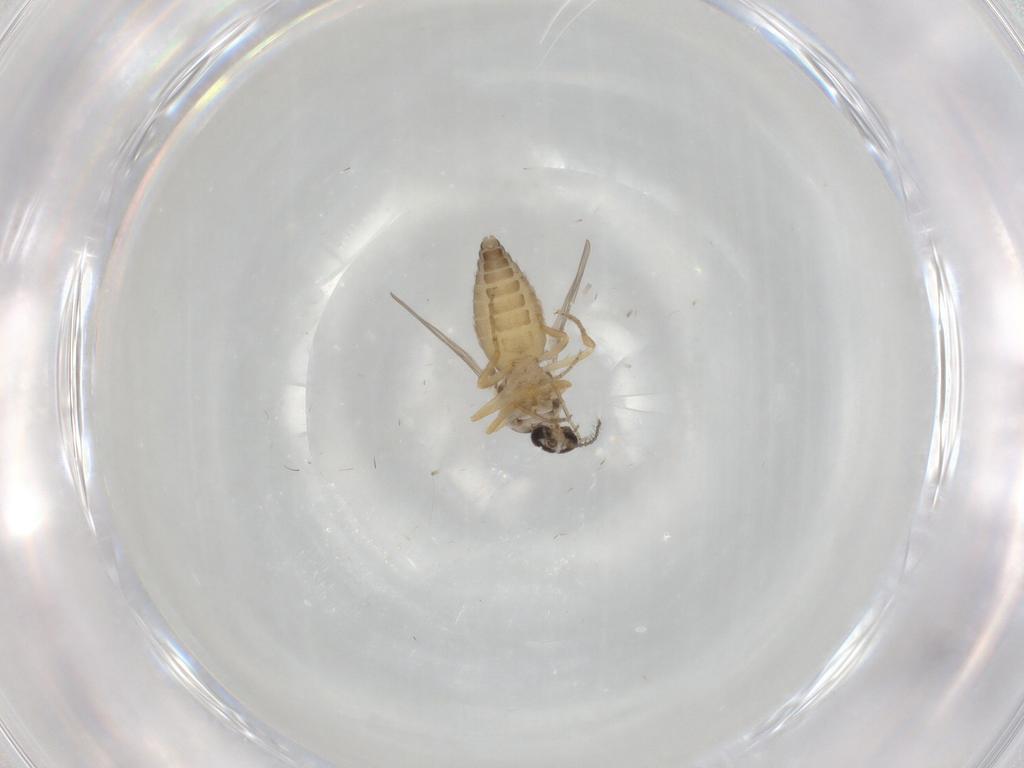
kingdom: Animalia
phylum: Arthropoda
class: Insecta
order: Diptera
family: Ceratopogonidae
